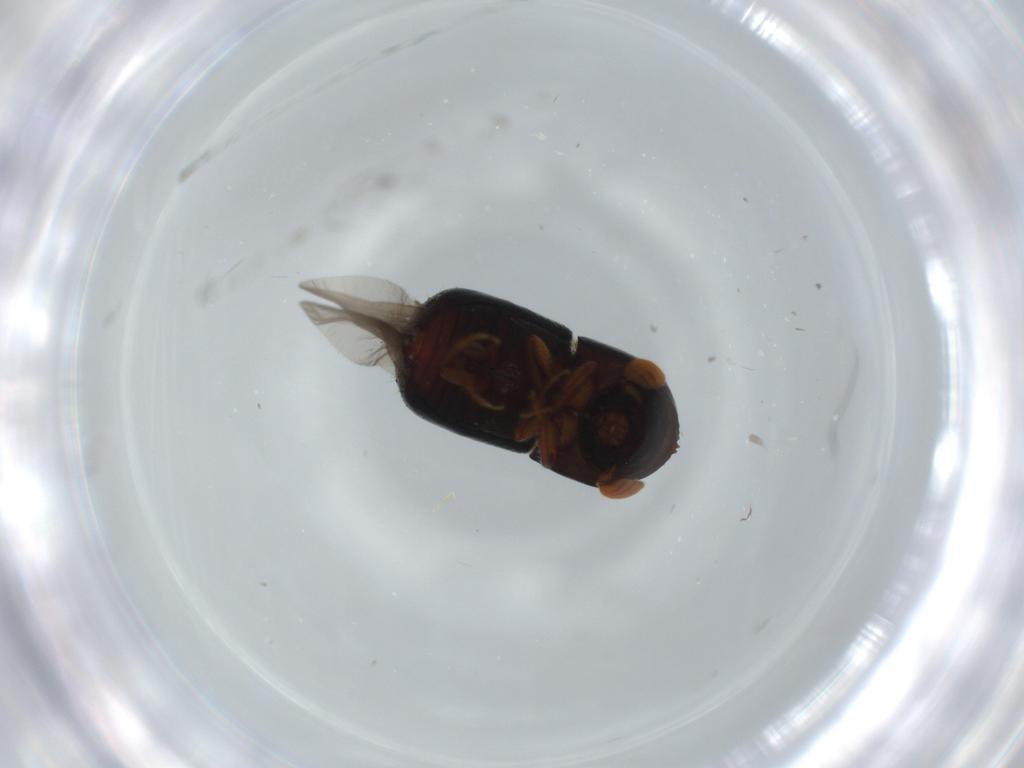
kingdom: Animalia
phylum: Arthropoda
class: Insecta
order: Coleoptera
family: Curculionidae
